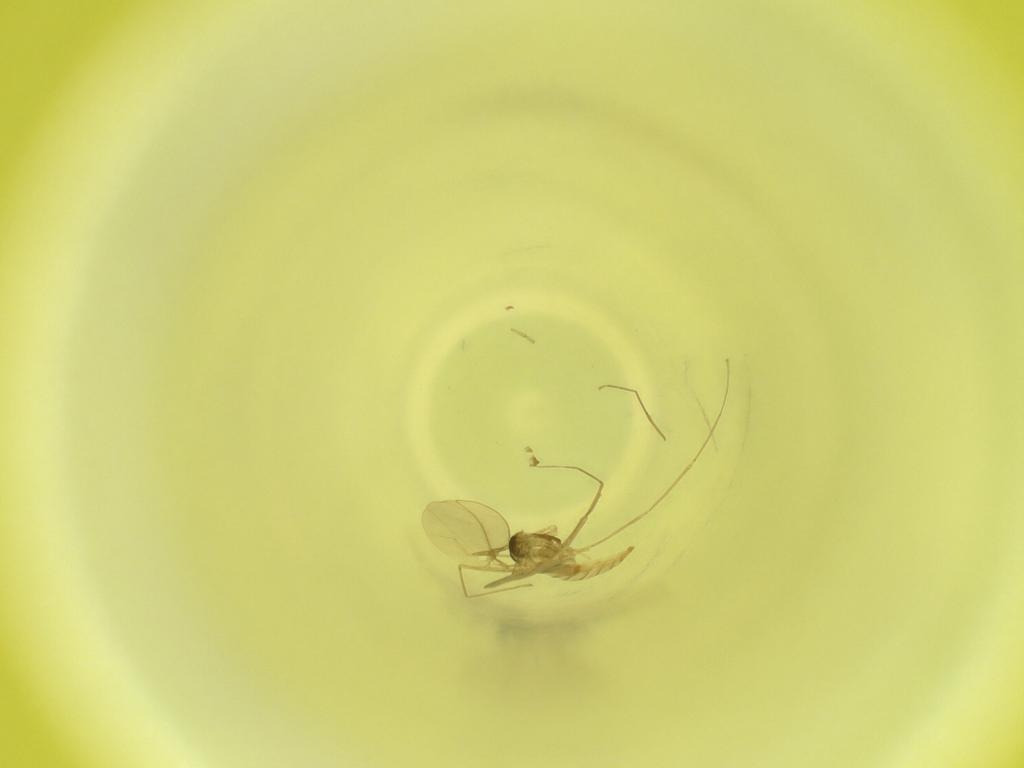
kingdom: Animalia
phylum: Arthropoda
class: Insecta
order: Diptera
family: Cecidomyiidae
